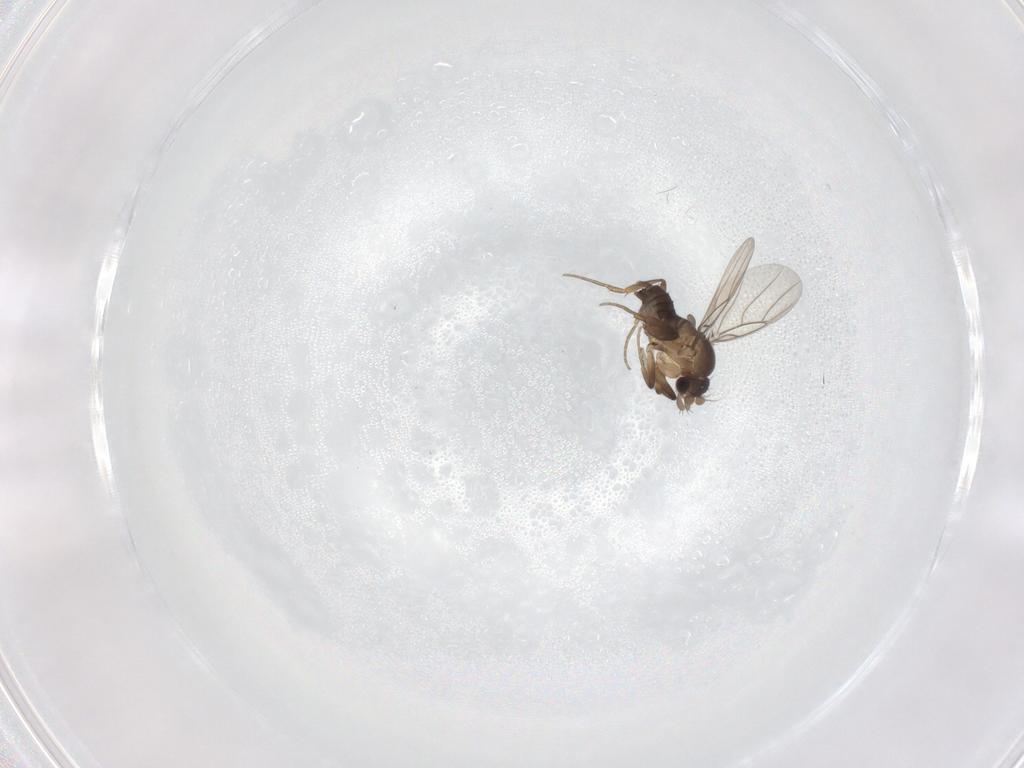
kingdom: Animalia
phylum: Arthropoda
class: Insecta
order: Diptera
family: Phoridae
